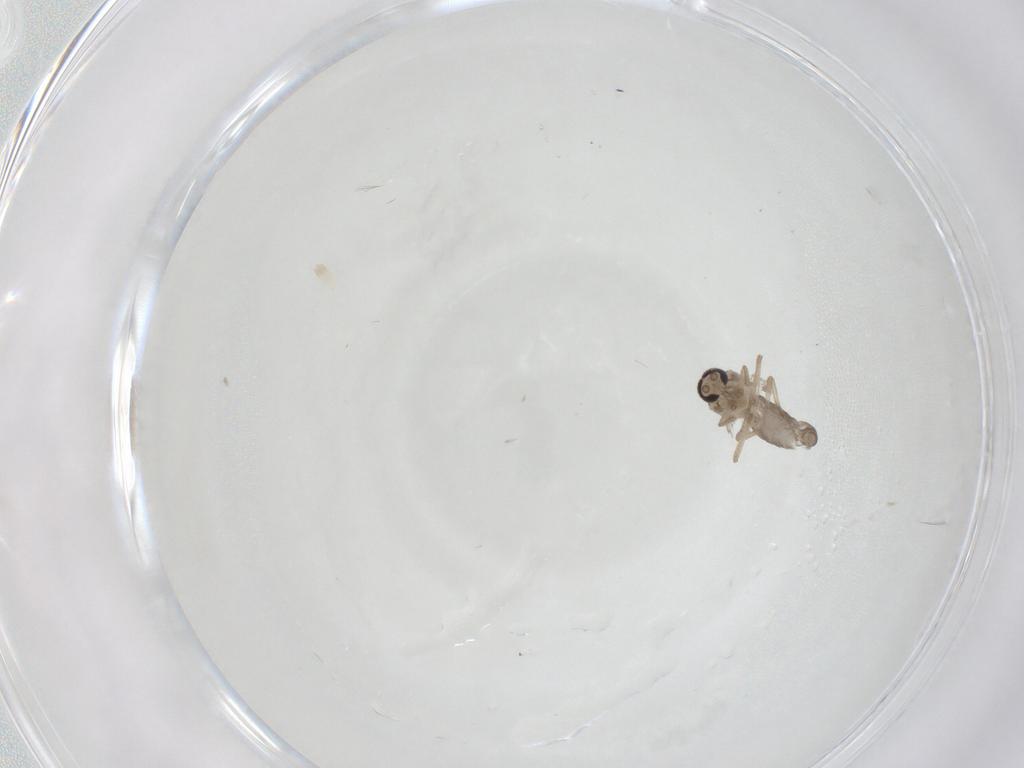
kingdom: Animalia
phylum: Arthropoda
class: Insecta
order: Diptera
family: Ceratopogonidae
